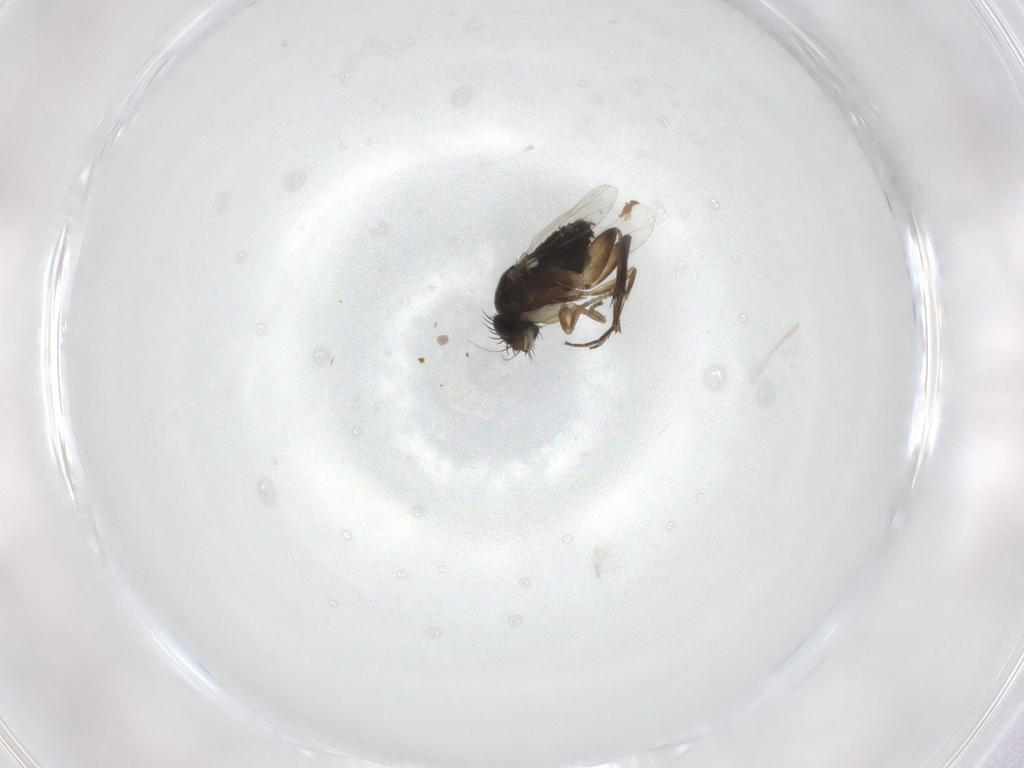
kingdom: Animalia
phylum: Arthropoda
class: Insecta
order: Diptera
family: Phoridae
